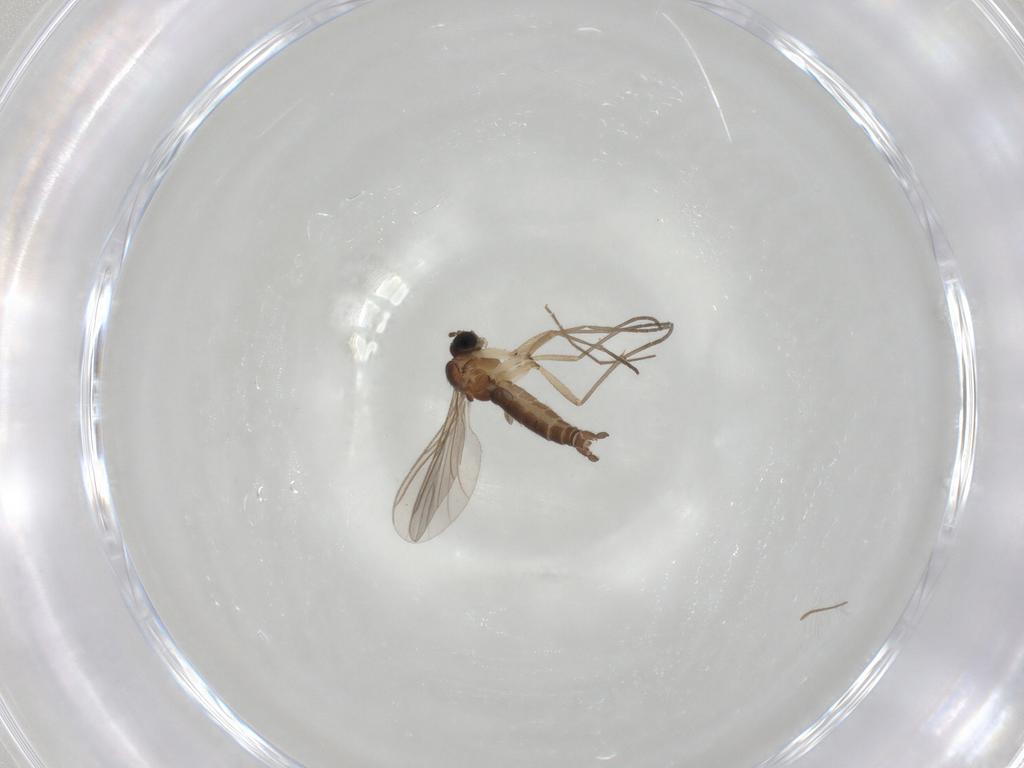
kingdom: Animalia
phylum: Arthropoda
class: Insecta
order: Diptera
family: Sciaridae
